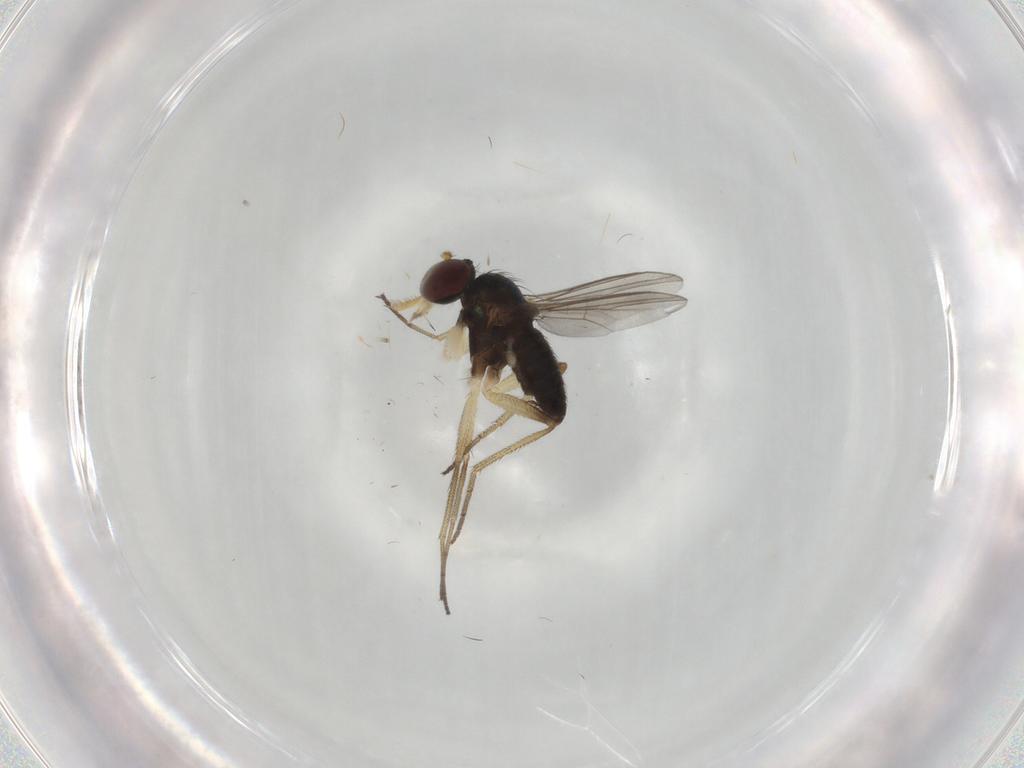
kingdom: Animalia
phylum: Arthropoda
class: Insecta
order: Diptera
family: Dolichopodidae
